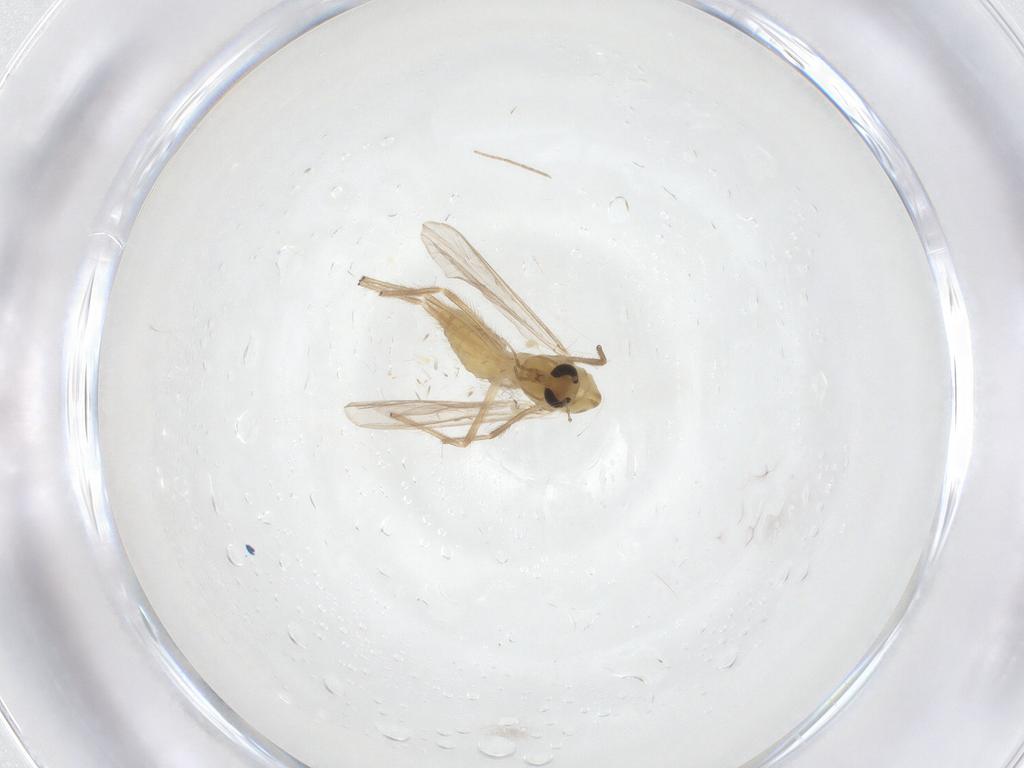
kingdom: Animalia
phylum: Arthropoda
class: Insecta
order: Diptera
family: Chironomidae
